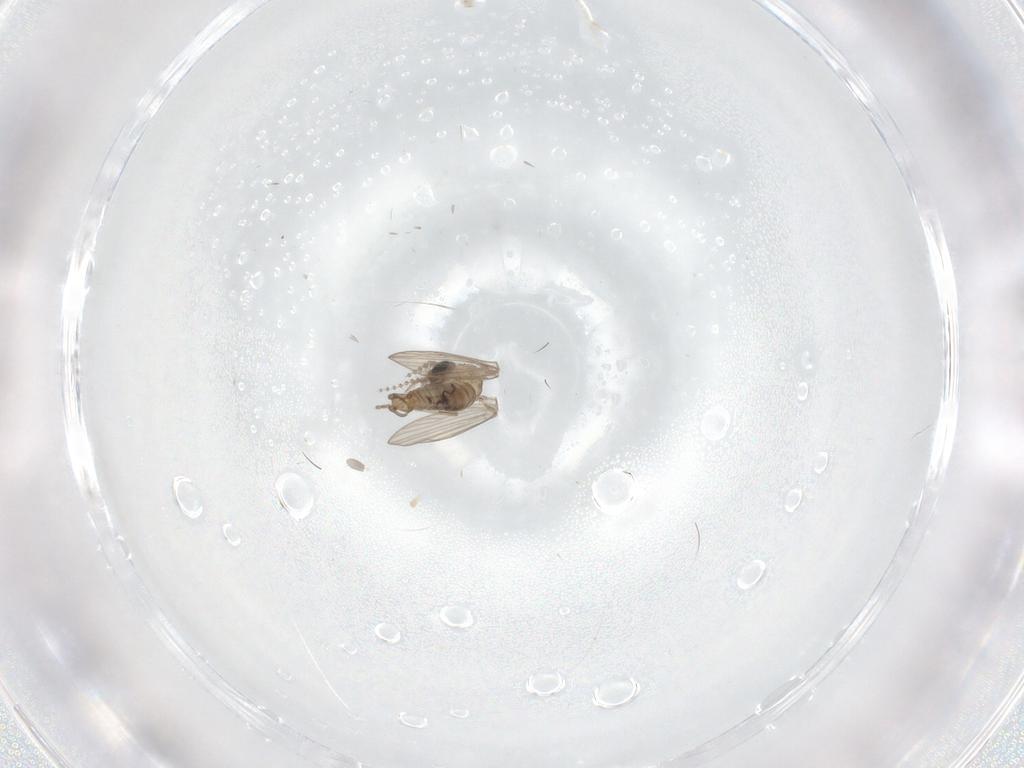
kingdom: Animalia
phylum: Arthropoda
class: Insecta
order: Diptera
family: Psychodidae
